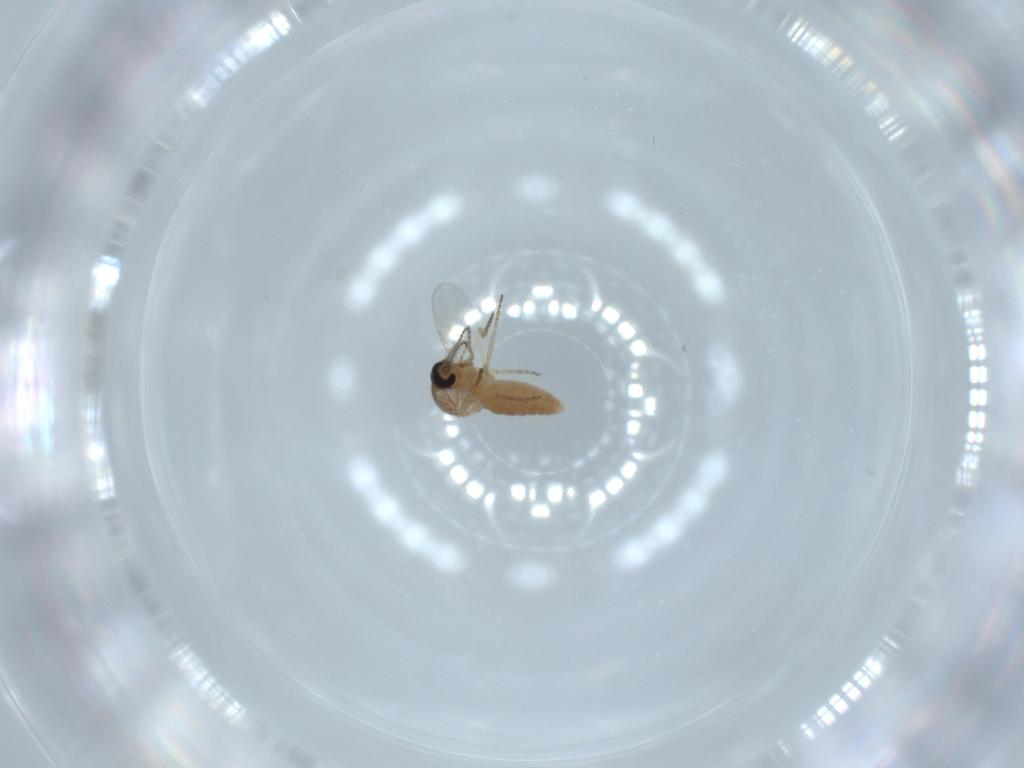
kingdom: Animalia
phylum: Arthropoda
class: Insecta
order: Diptera
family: Ceratopogonidae
